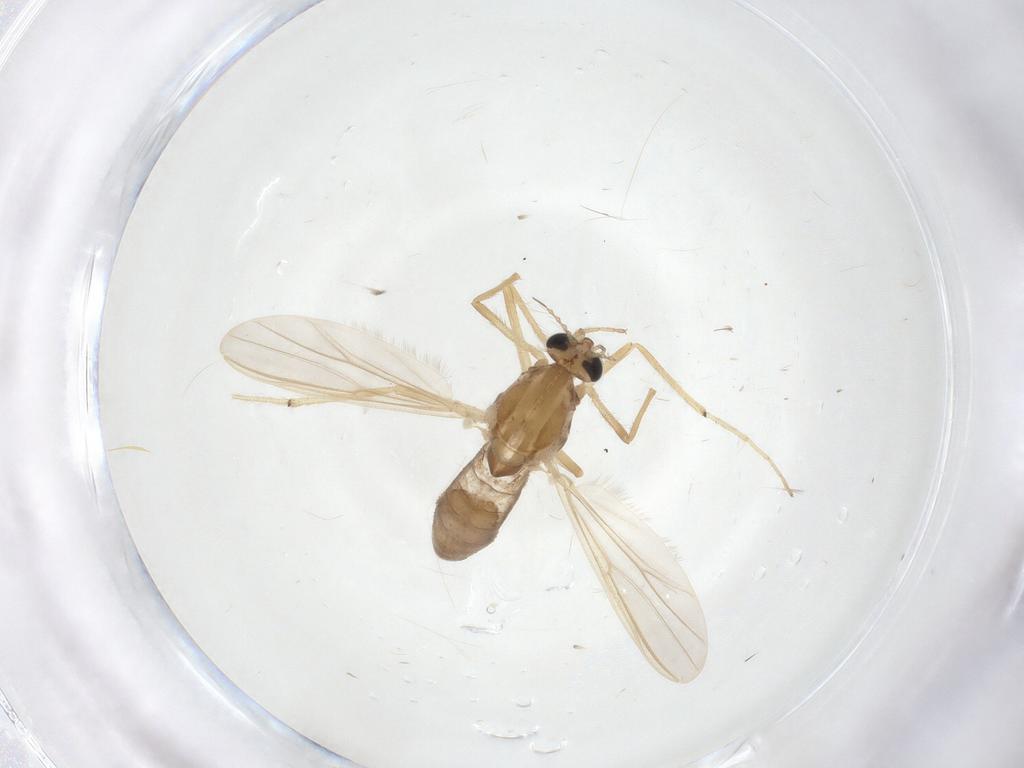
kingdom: Animalia
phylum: Arthropoda
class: Insecta
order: Diptera
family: Chironomidae
